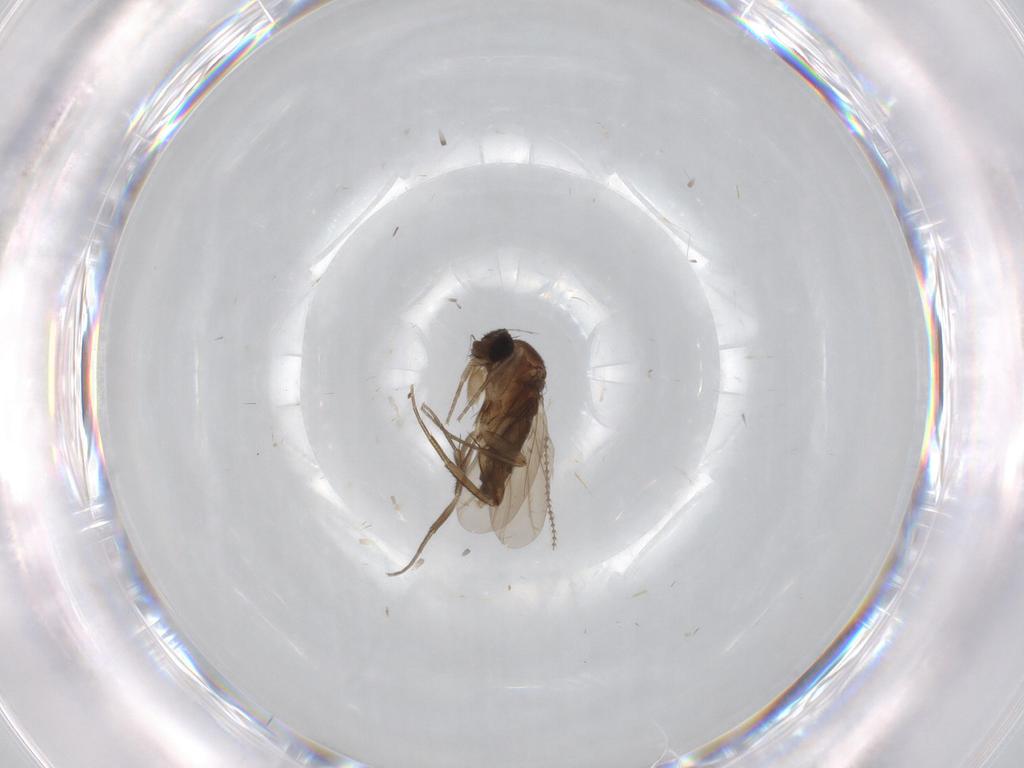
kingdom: Animalia
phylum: Arthropoda
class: Insecta
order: Diptera
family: Phoridae
